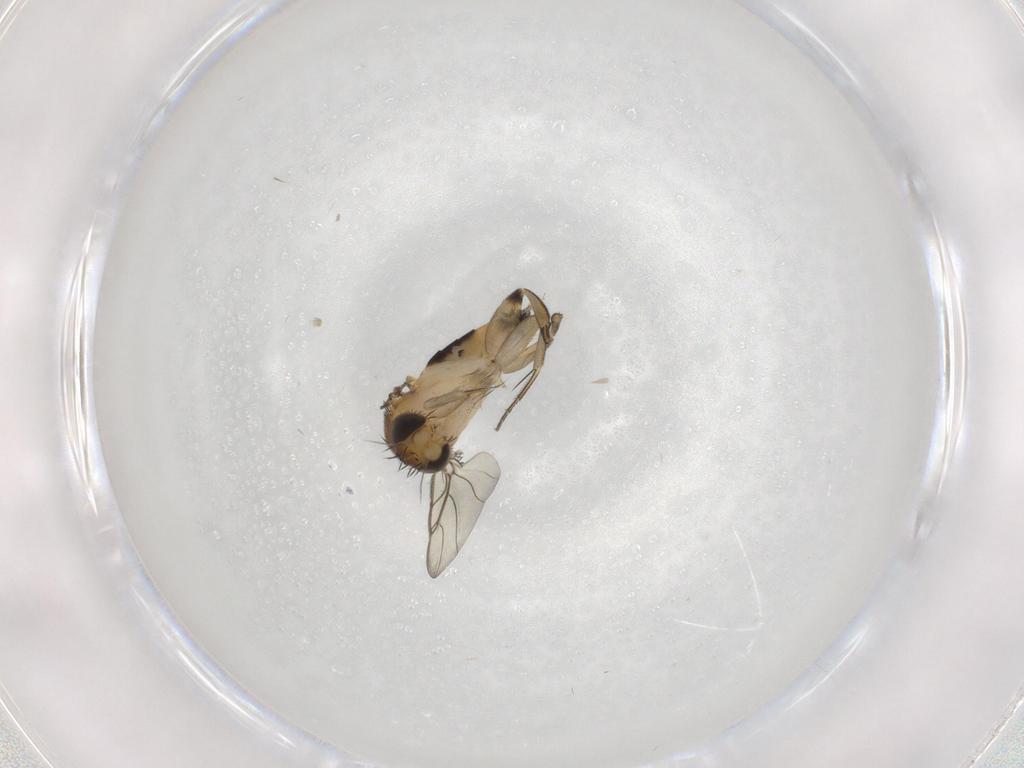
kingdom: Animalia
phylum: Arthropoda
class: Insecta
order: Diptera
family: Phoridae
